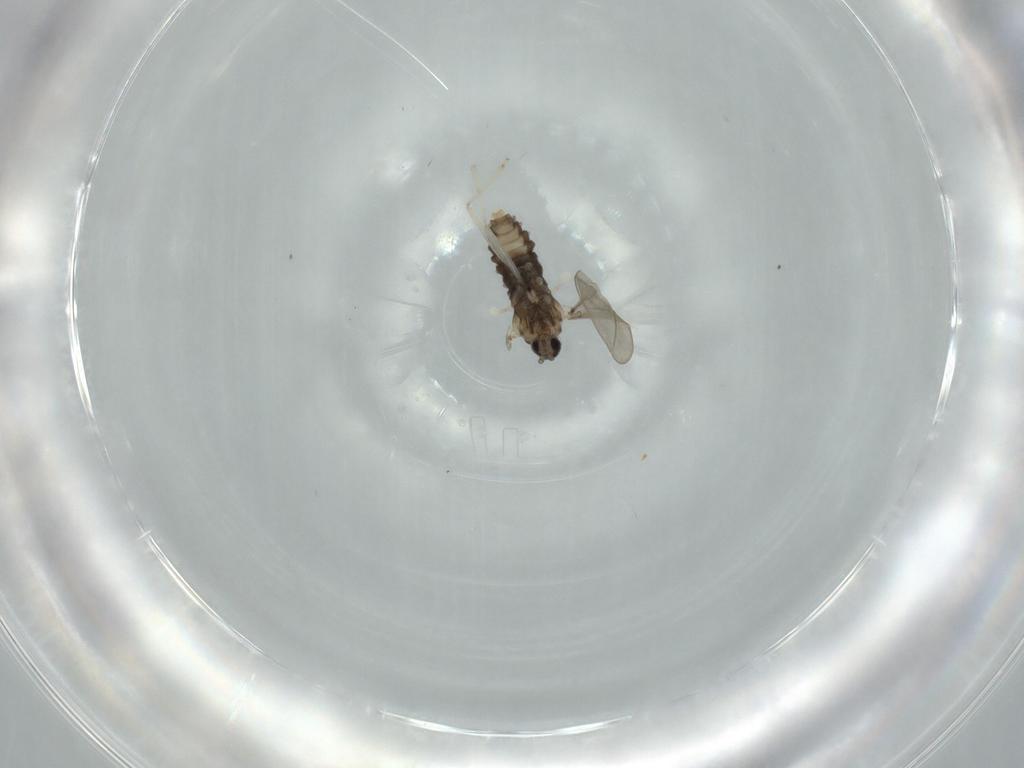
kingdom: Animalia
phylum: Arthropoda
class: Insecta
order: Diptera
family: Cecidomyiidae
